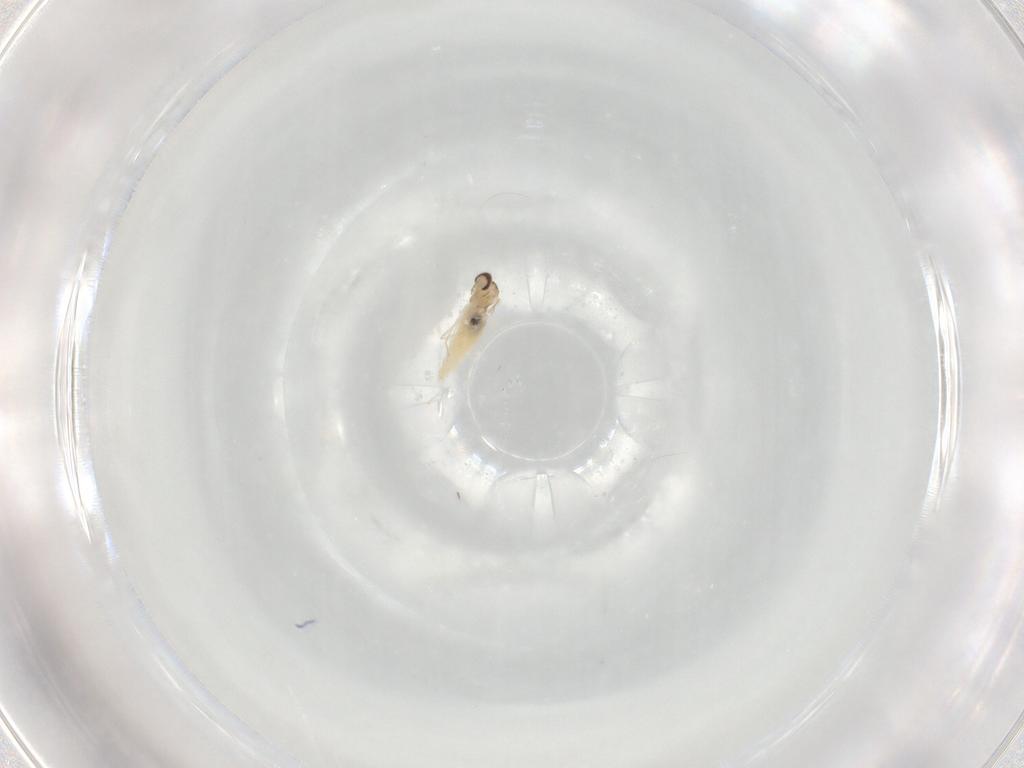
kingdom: Animalia
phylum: Arthropoda
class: Insecta
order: Diptera
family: Cecidomyiidae
